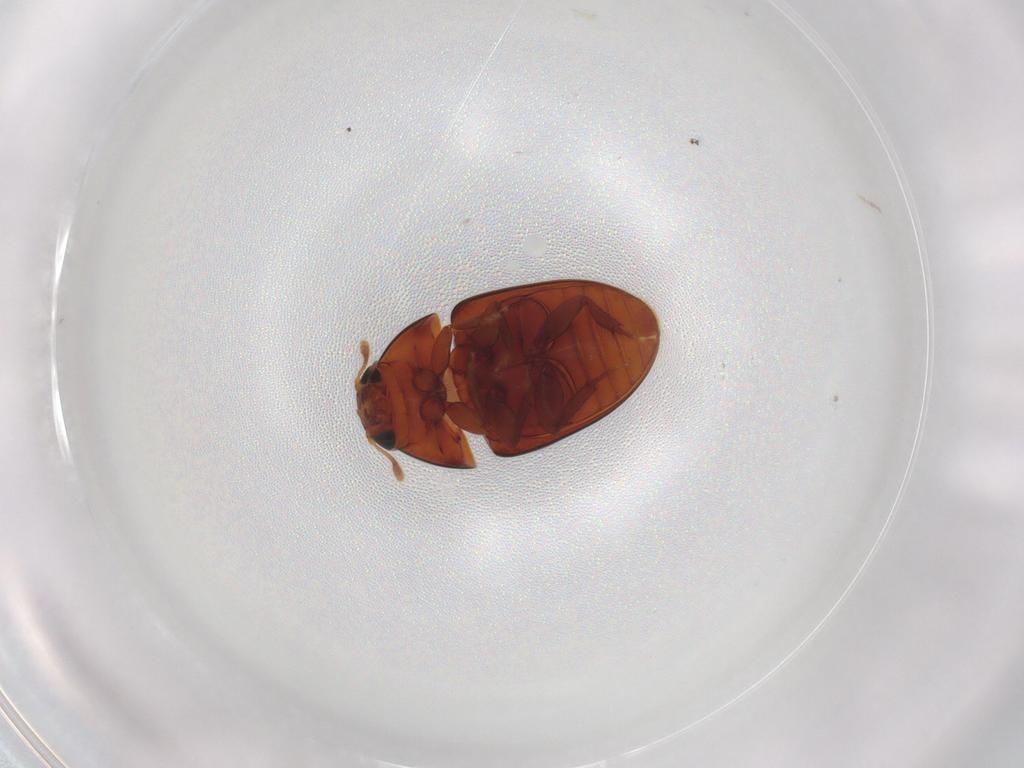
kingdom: Animalia
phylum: Arthropoda
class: Insecta
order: Coleoptera
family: Phalacridae
